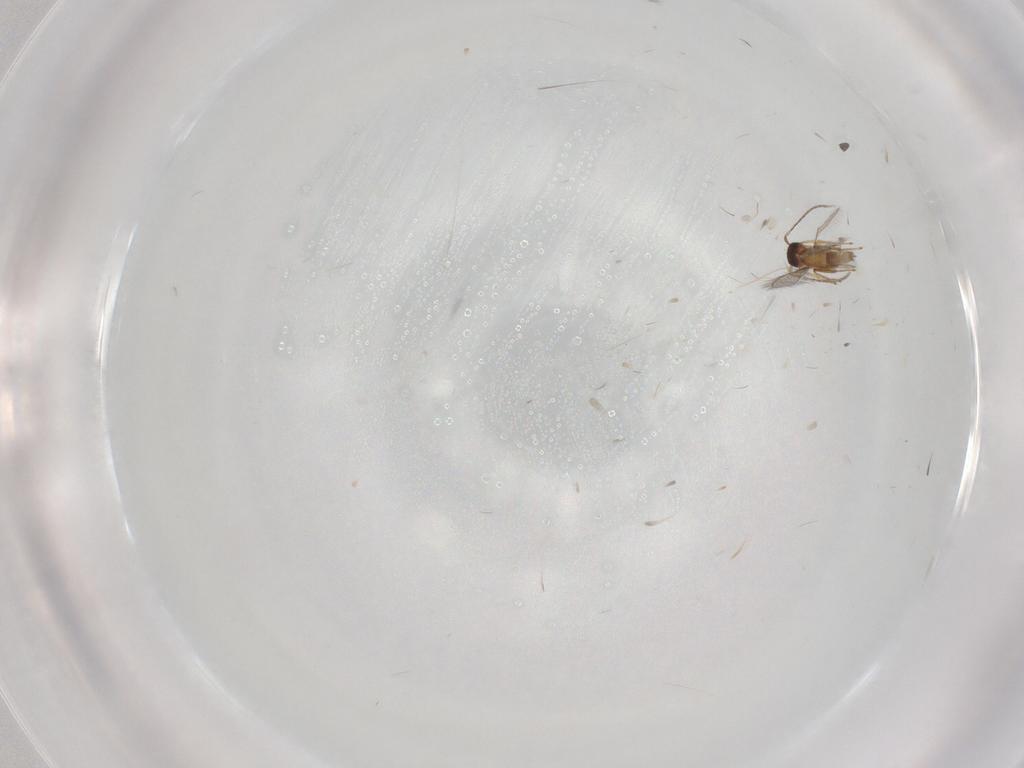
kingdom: Animalia
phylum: Arthropoda
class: Insecta
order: Hymenoptera
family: Mymaridae
